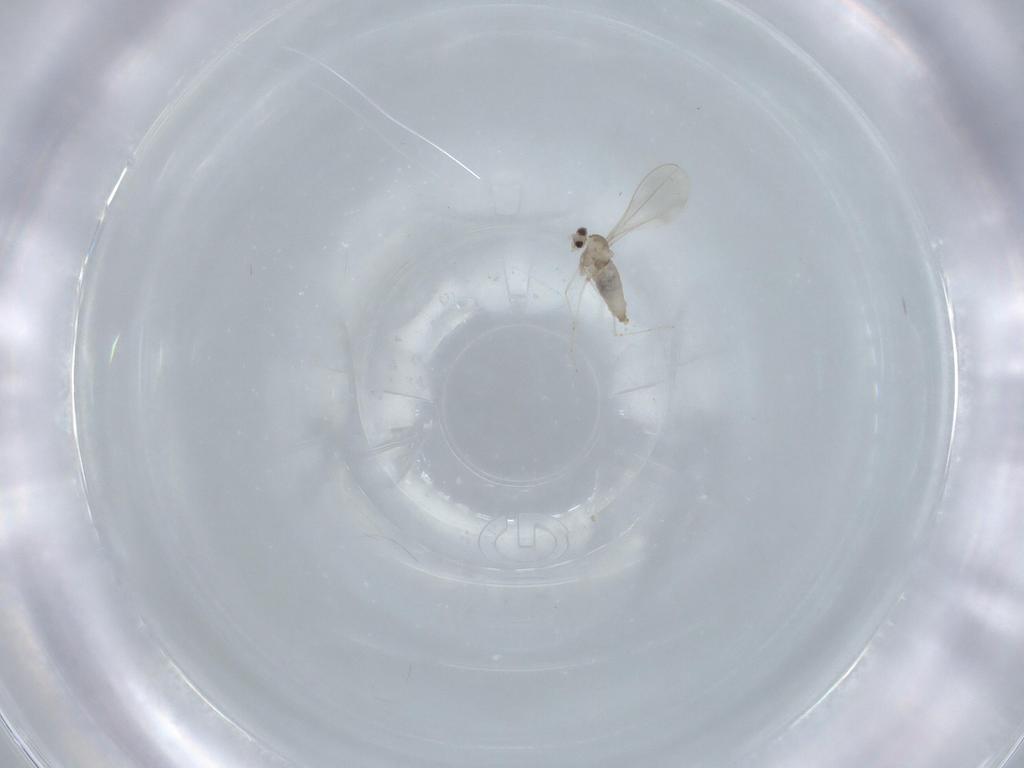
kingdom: Animalia
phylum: Arthropoda
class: Insecta
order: Diptera
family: Cecidomyiidae
